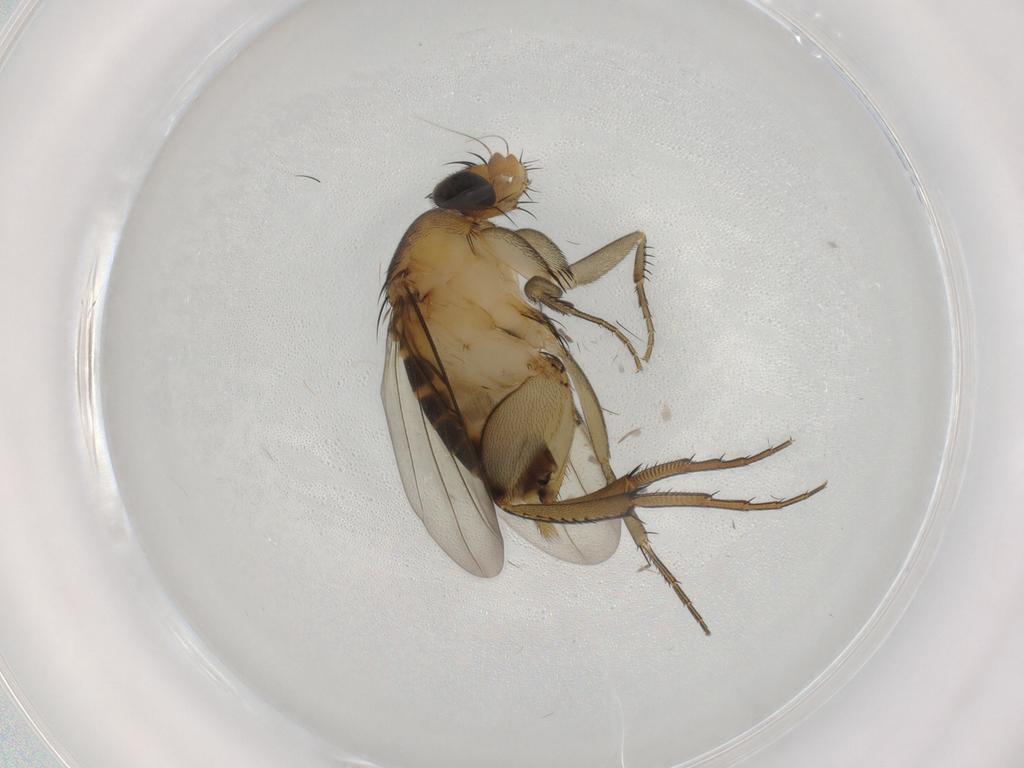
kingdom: Animalia
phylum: Arthropoda
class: Insecta
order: Diptera
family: Phoridae
